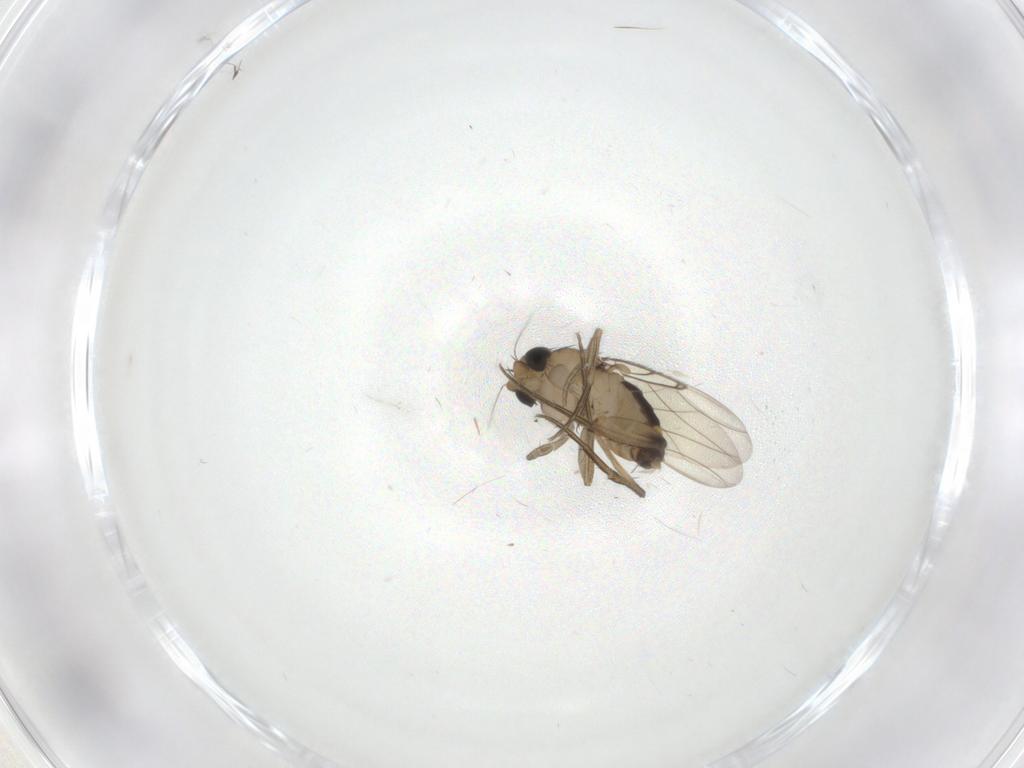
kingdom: Animalia
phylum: Arthropoda
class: Insecta
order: Diptera
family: Phoridae
